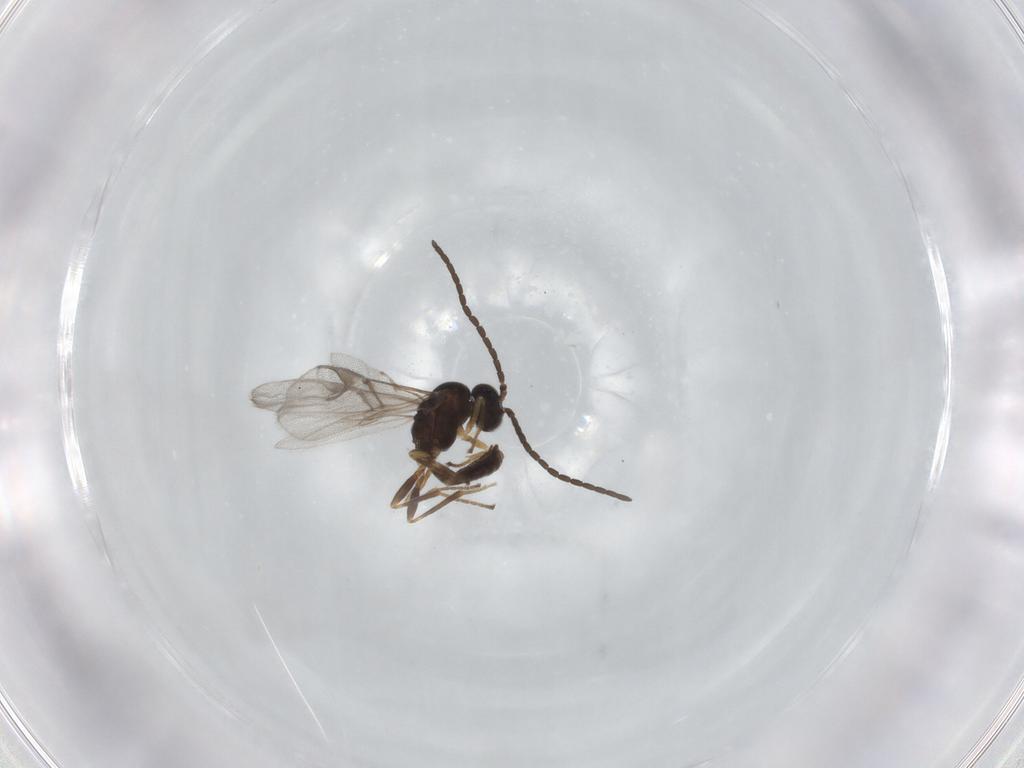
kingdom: Animalia
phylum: Arthropoda
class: Insecta
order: Hymenoptera
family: Braconidae
